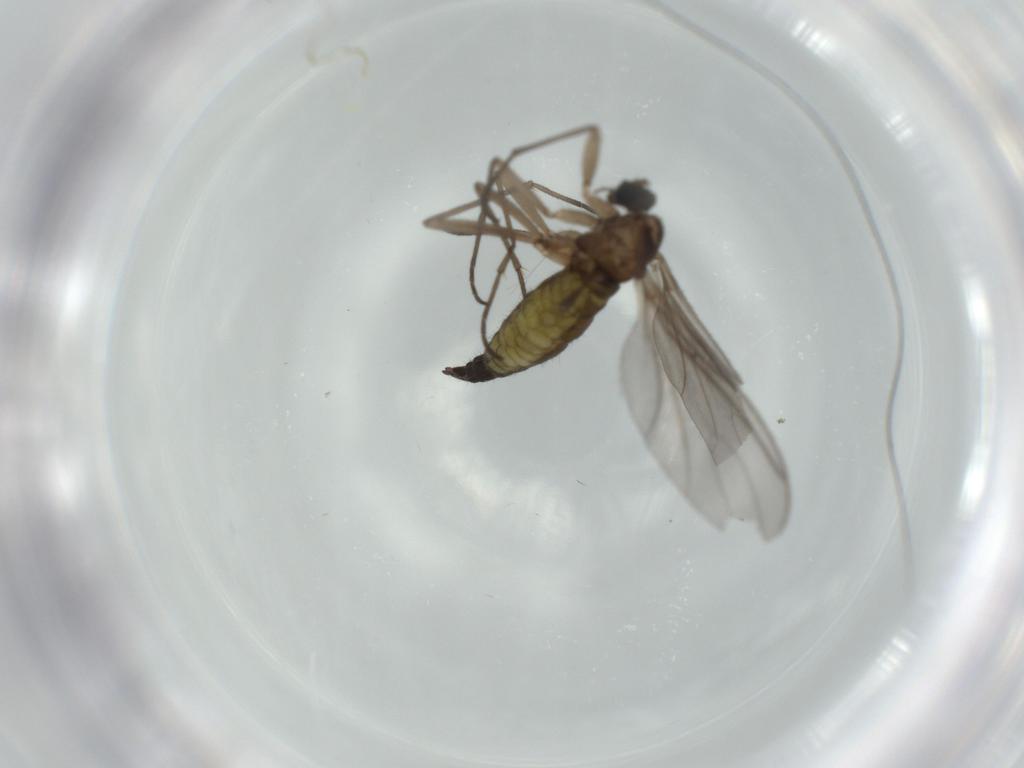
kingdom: Animalia
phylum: Arthropoda
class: Insecta
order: Diptera
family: Sciaridae
